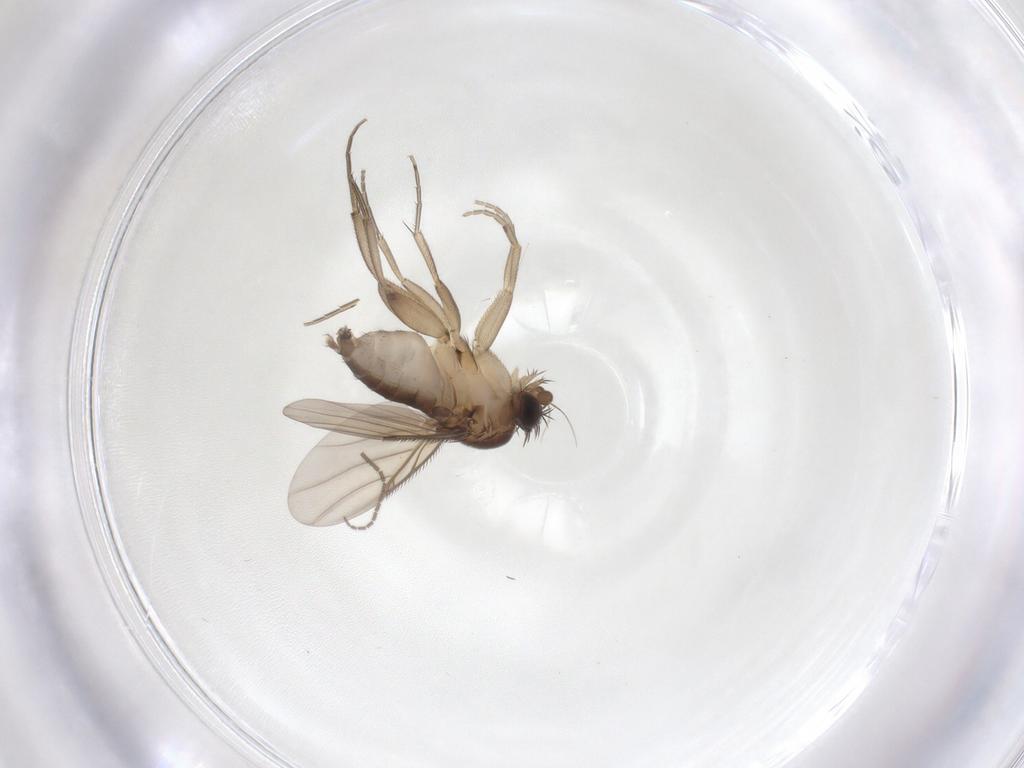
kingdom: Animalia
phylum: Arthropoda
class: Insecta
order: Diptera
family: Phoridae
